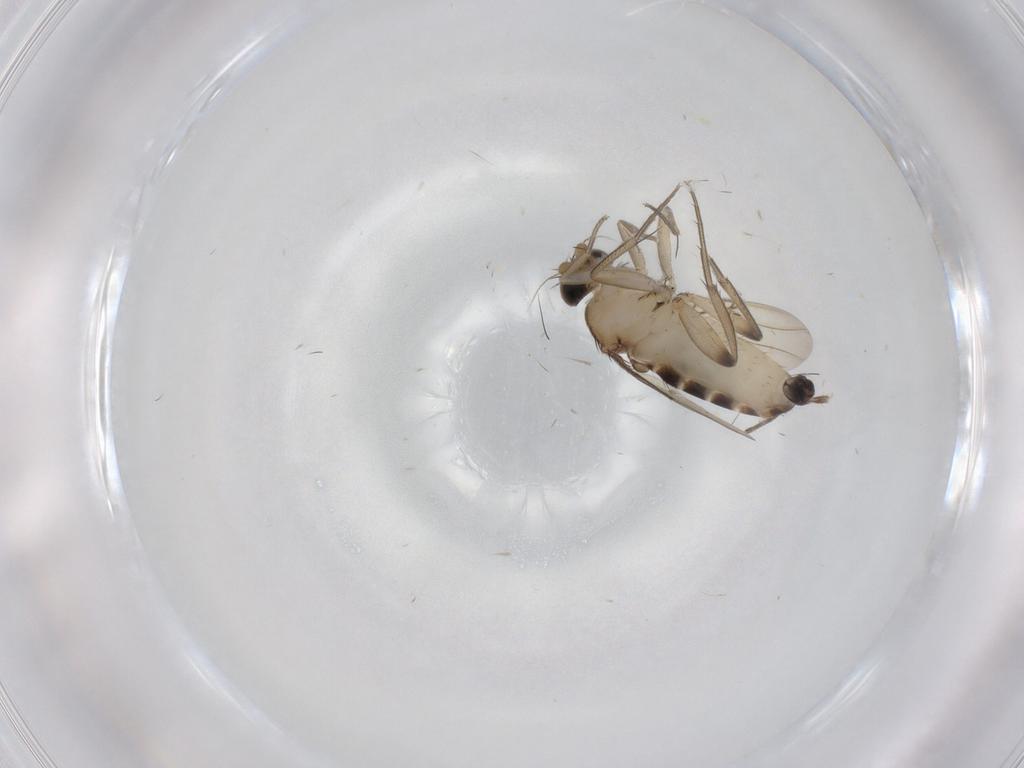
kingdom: Animalia
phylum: Arthropoda
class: Insecta
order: Diptera
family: Phoridae
